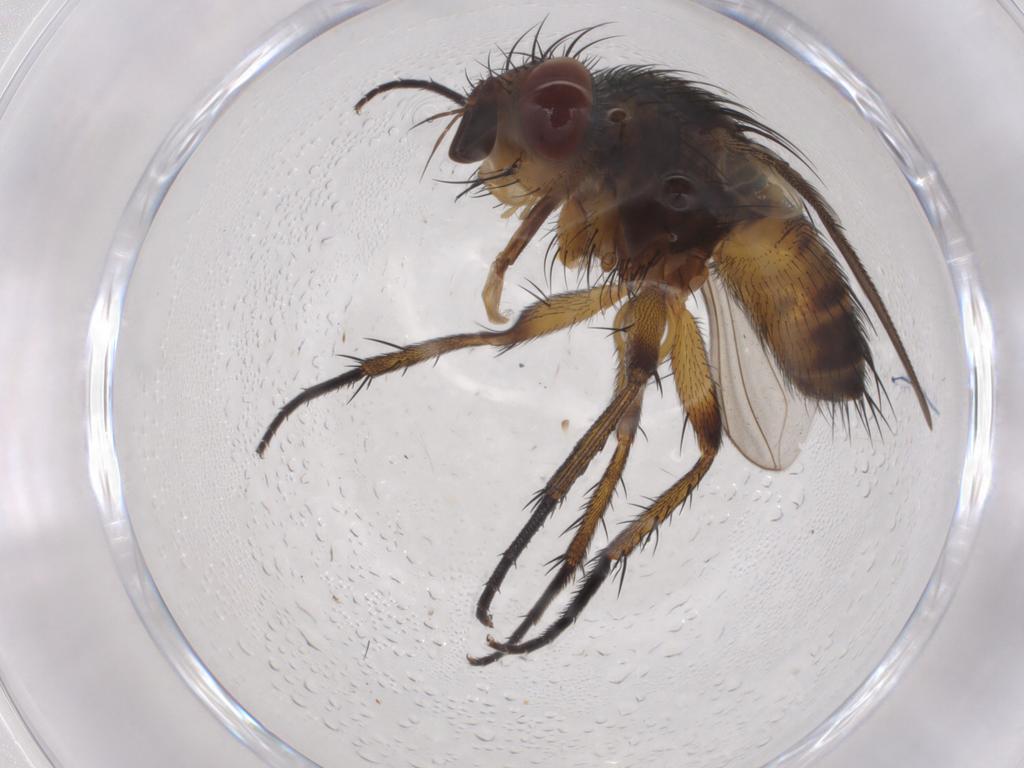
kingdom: Animalia
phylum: Arthropoda
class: Insecta
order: Diptera
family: Tachinidae
